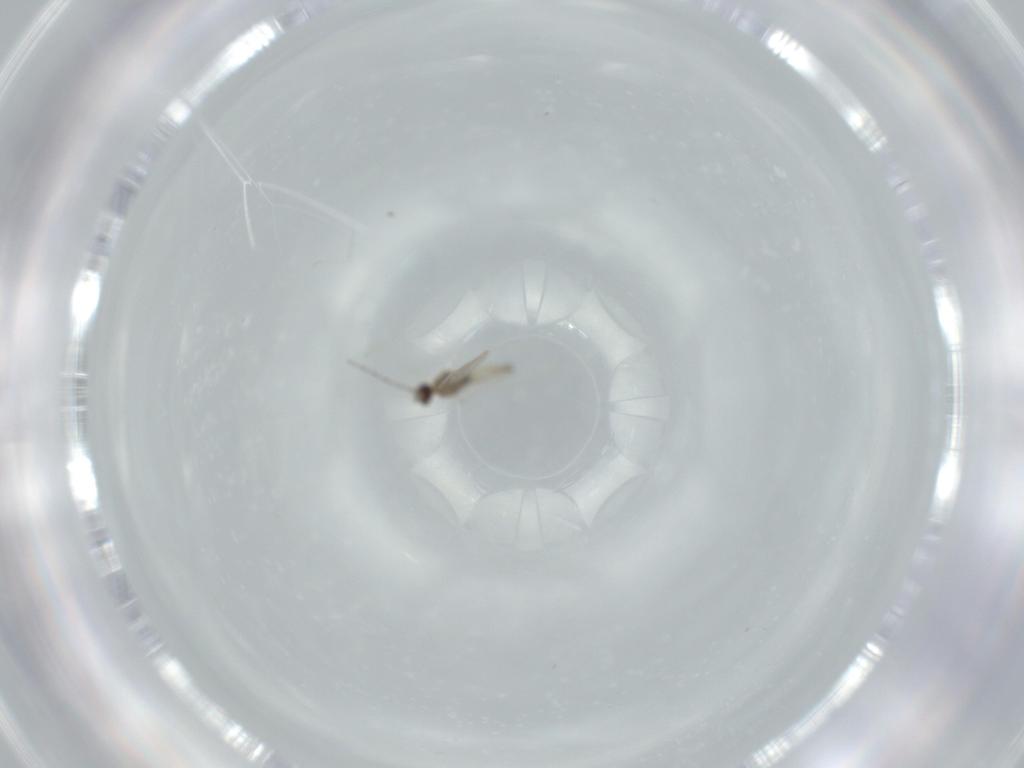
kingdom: Animalia
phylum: Arthropoda
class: Insecta
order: Diptera
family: Cecidomyiidae
